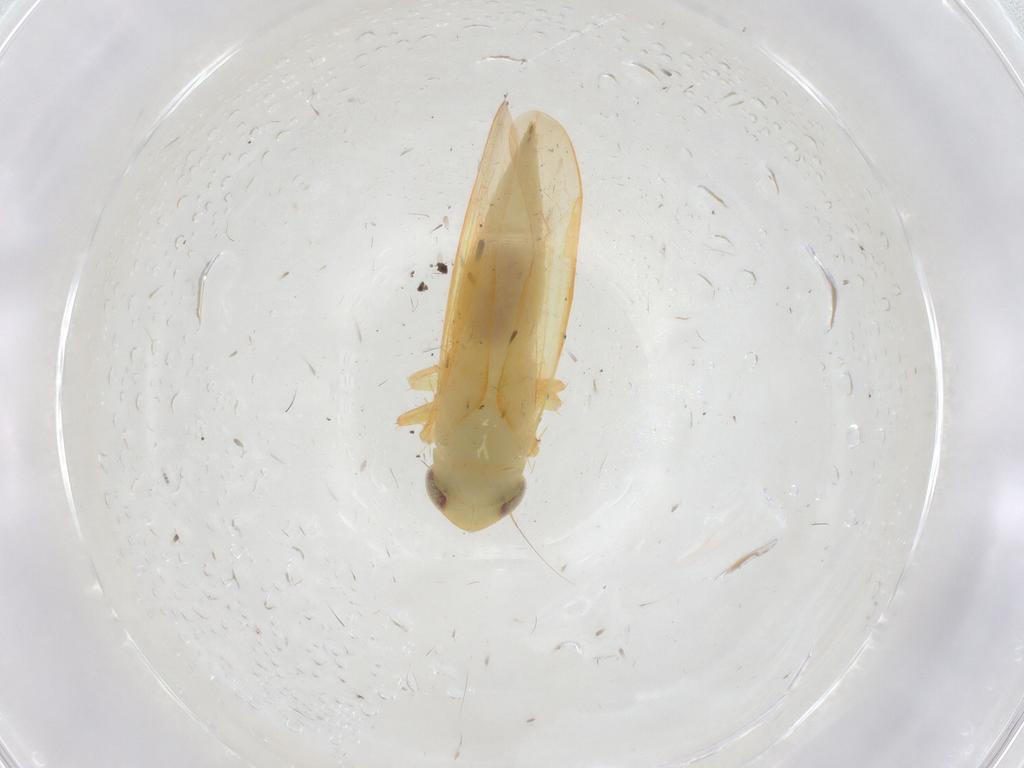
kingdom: Animalia
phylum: Arthropoda
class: Insecta
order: Hemiptera
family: Cicadellidae
